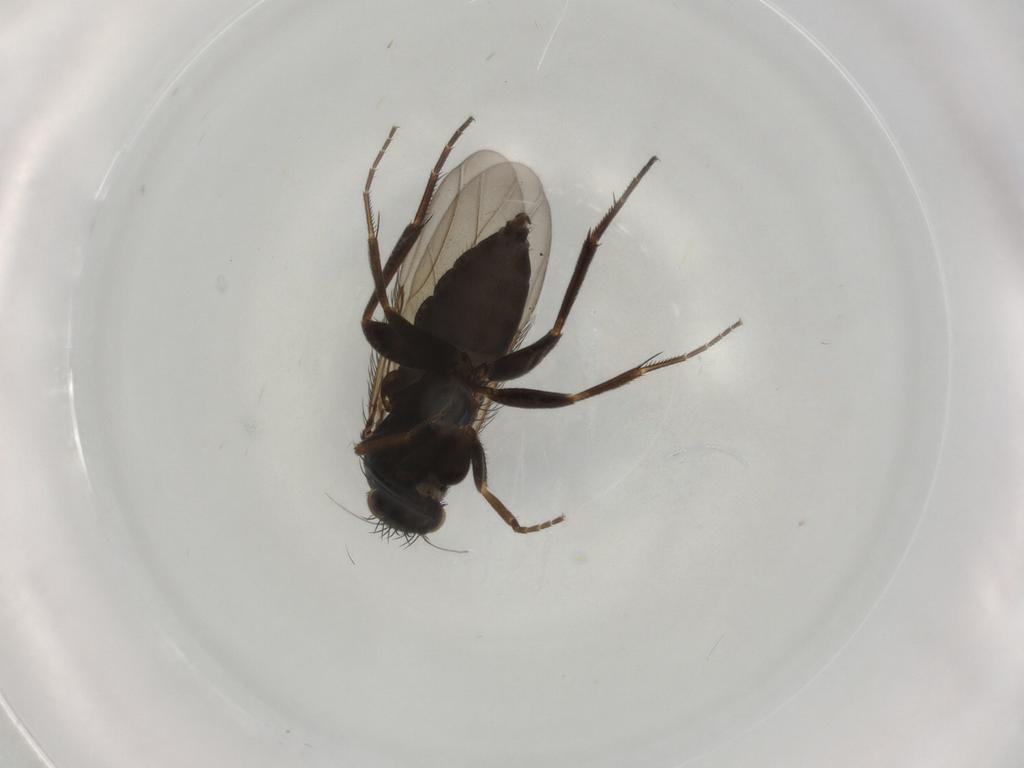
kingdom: Animalia
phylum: Arthropoda
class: Insecta
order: Diptera
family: Phoridae
